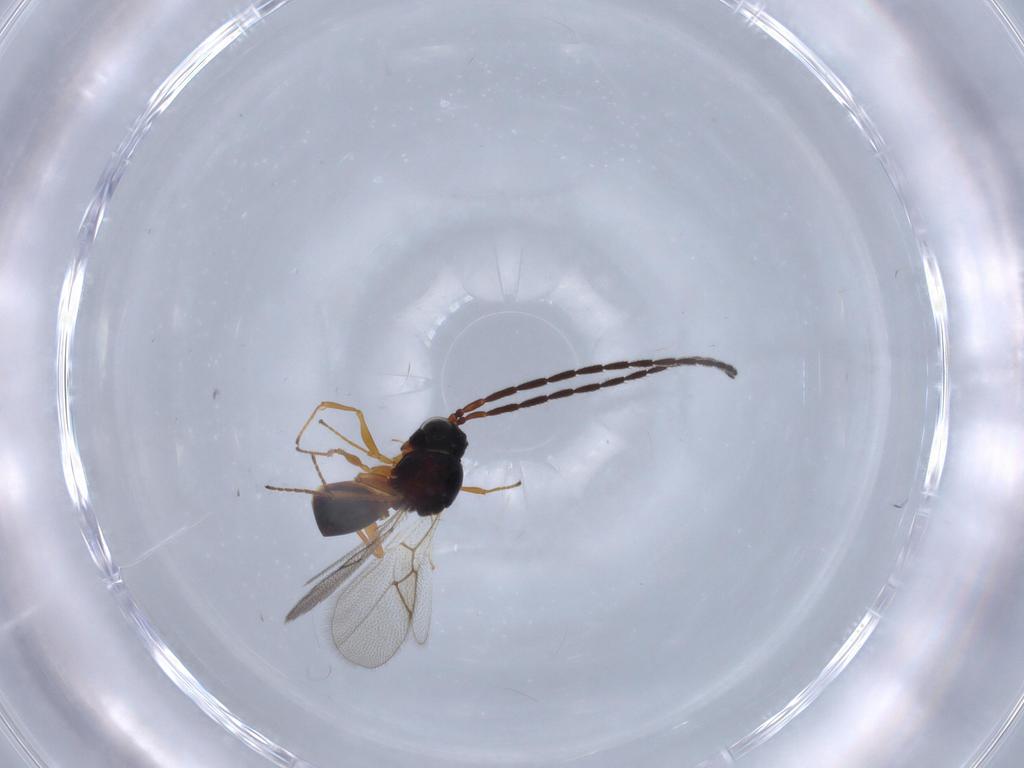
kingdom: Animalia
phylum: Arthropoda
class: Insecta
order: Hymenoptera
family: Figitidae
